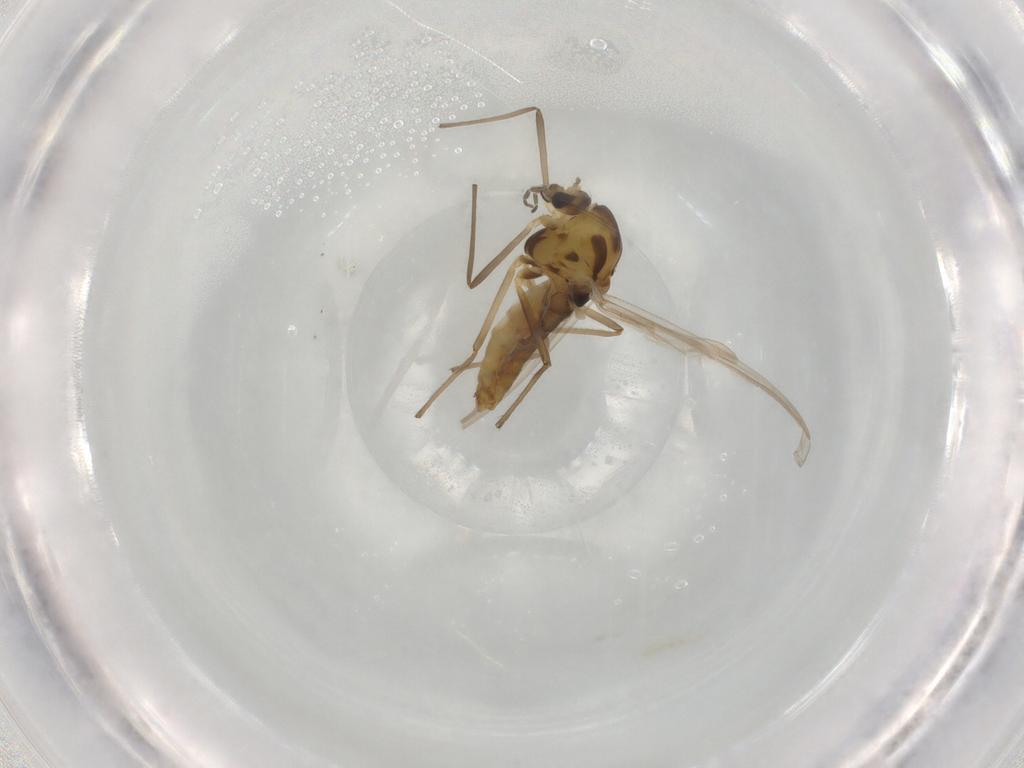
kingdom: Animalia
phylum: Arthropoda
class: Insecta
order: Diptera
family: Chironomidae
